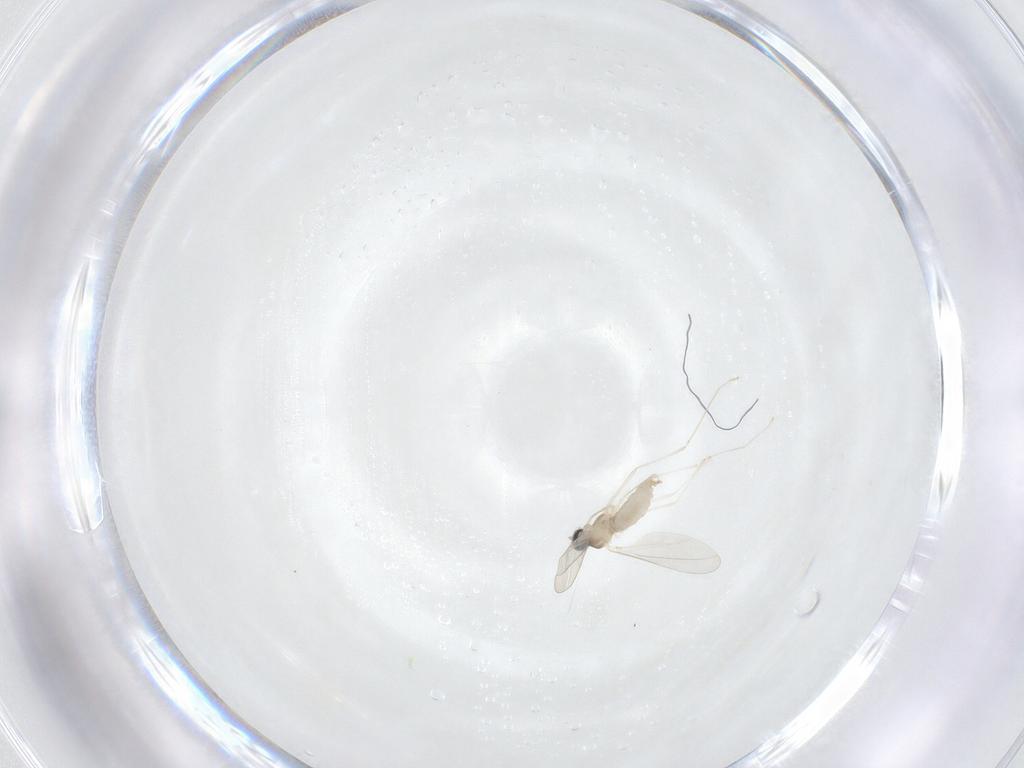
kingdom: Animalia
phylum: Arthropoda
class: Insecta
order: Diptera
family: Cecidomyiidae
